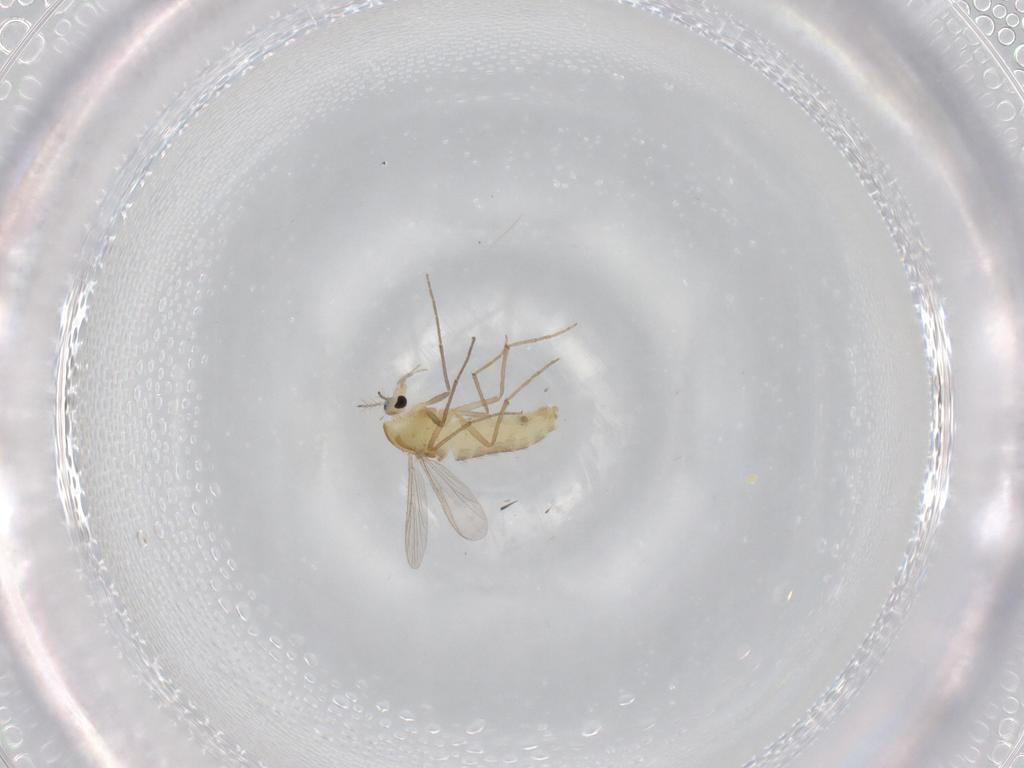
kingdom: Animalia
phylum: Arthropoda
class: Insecta
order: Diptera
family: Chironomidae
